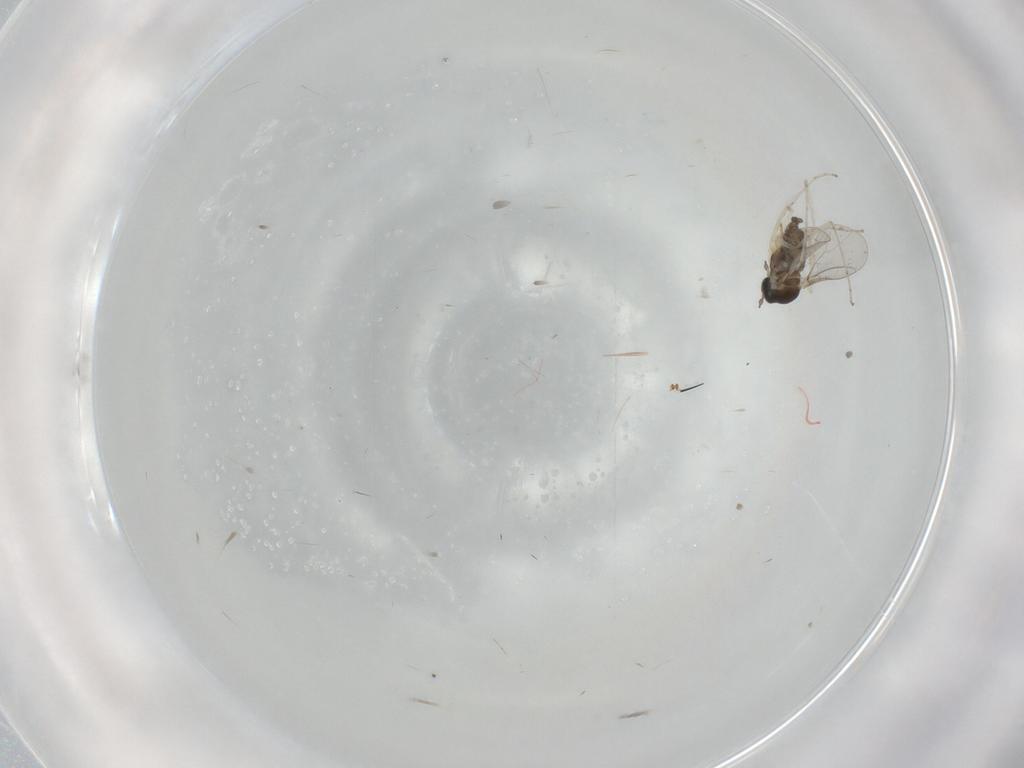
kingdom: Animalia
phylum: Arthropoda
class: Insecta
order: Diptera
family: Cecidomyiidae
